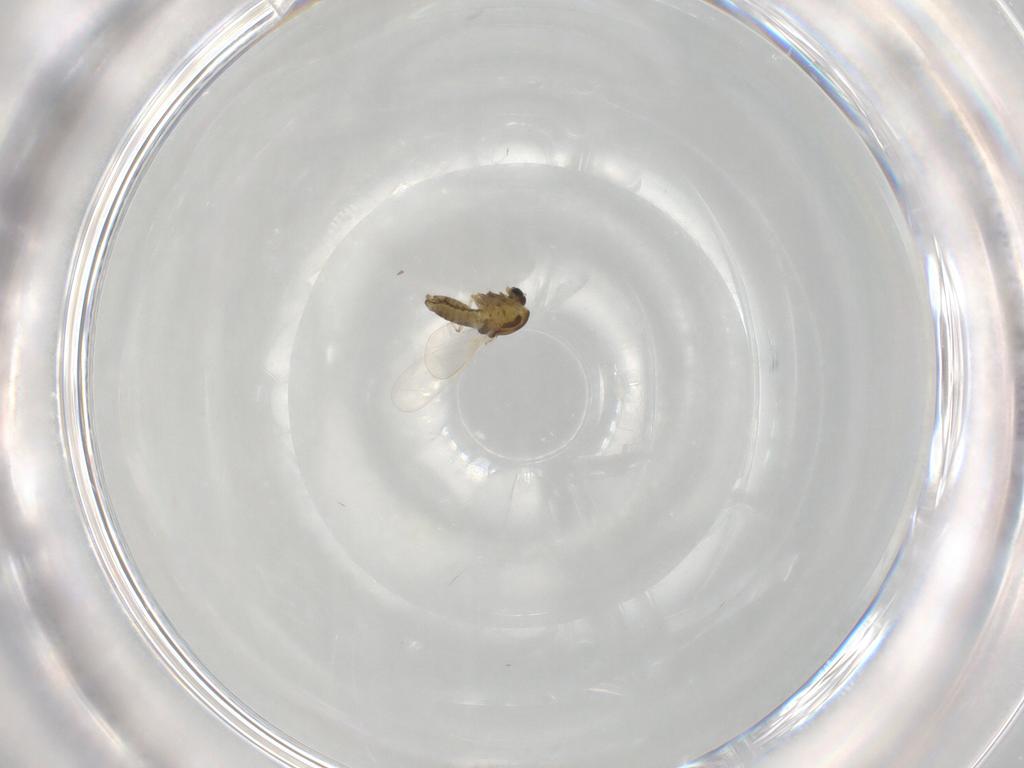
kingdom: Animalia
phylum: Arthropoda
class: Insecta
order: Diptera
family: Chironomidae
